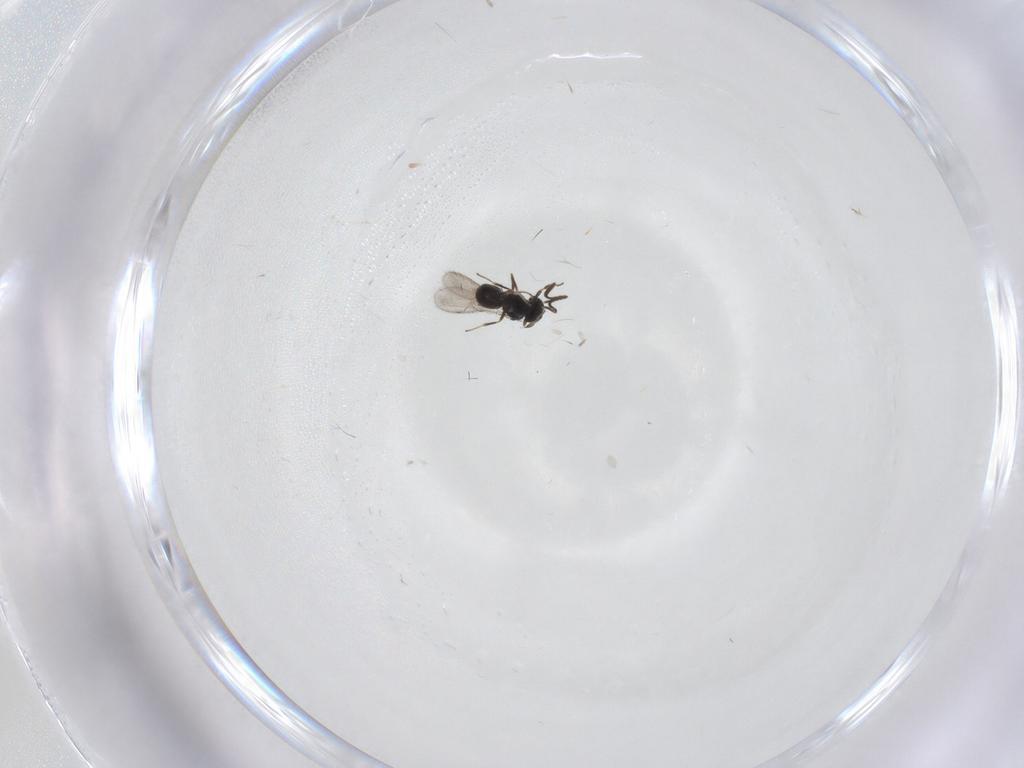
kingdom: Animalia
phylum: Arthropoda
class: Insecta
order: Hymenoptera
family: Scelionidae
